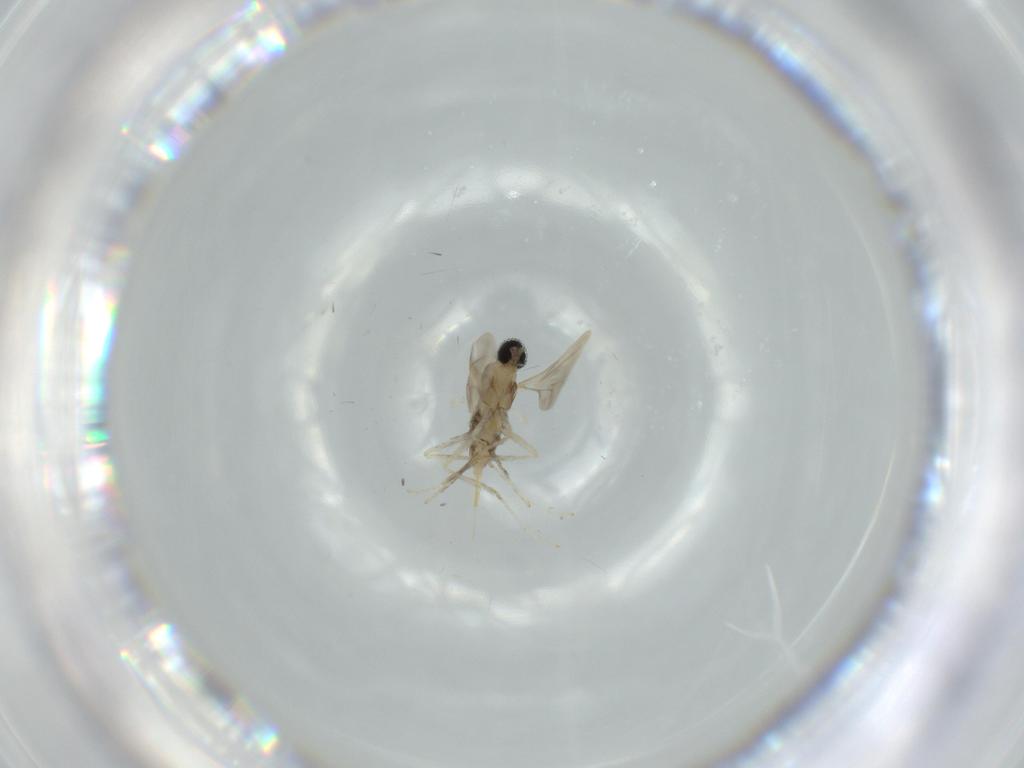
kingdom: Animalia
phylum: Arthropoda
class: Insecta
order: Diptera
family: Cecidomyiidae
